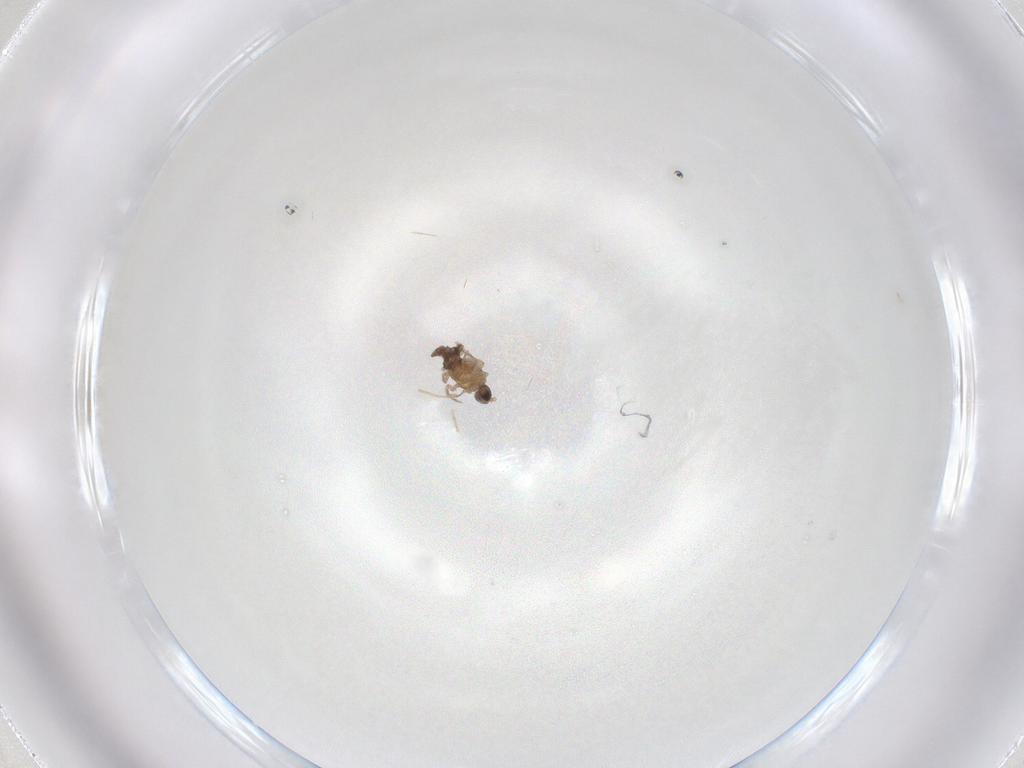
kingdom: Animalia
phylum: Arthropoda
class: Insecta
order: Diptera
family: Cecidomyiidae
